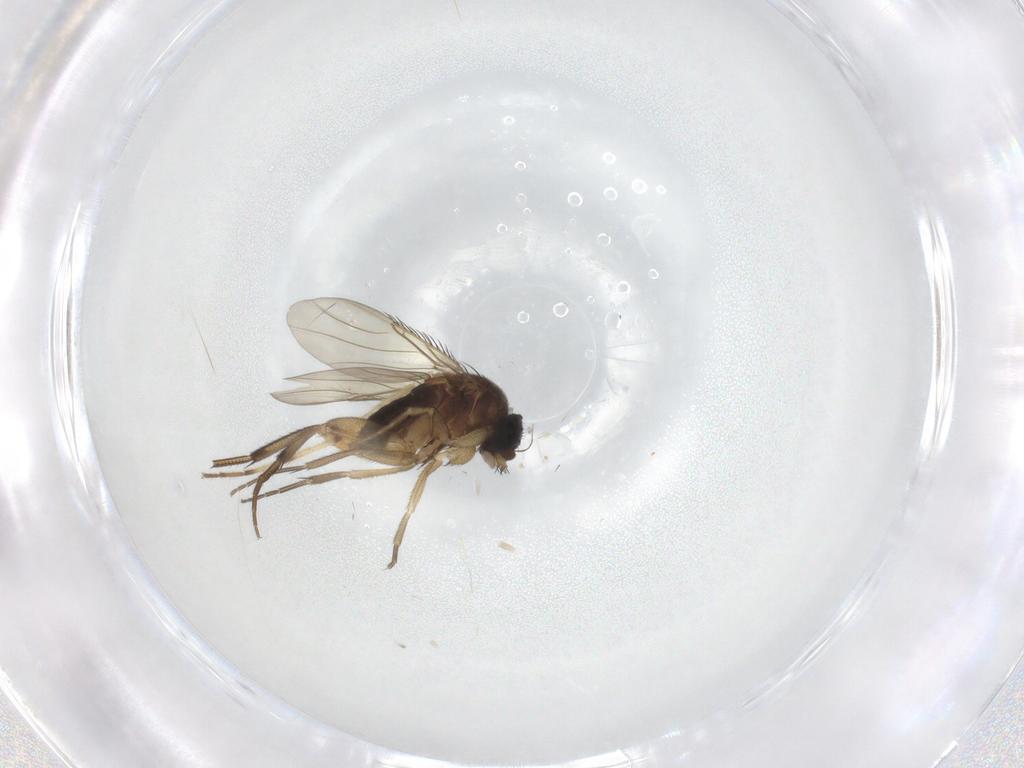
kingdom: Animalia
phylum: Arthropoda
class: Insecta
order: Diptera
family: Phoridae
